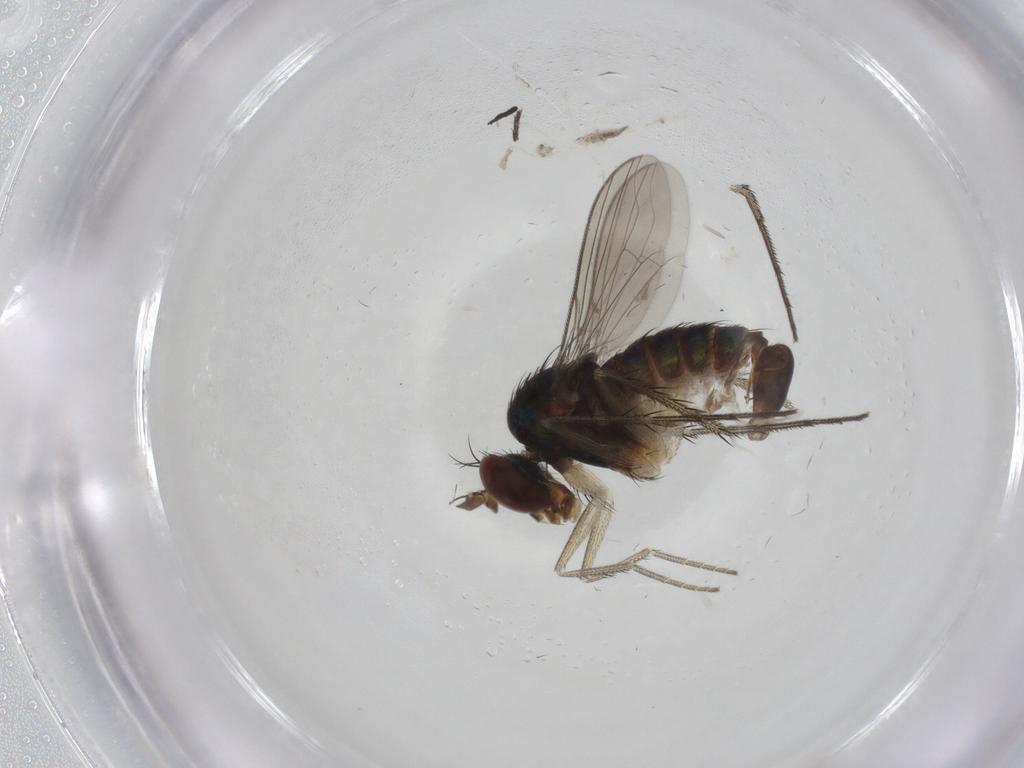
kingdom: Animalia
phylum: Arthropoda
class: Insecta
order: Diptera
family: Dolichopodidae
